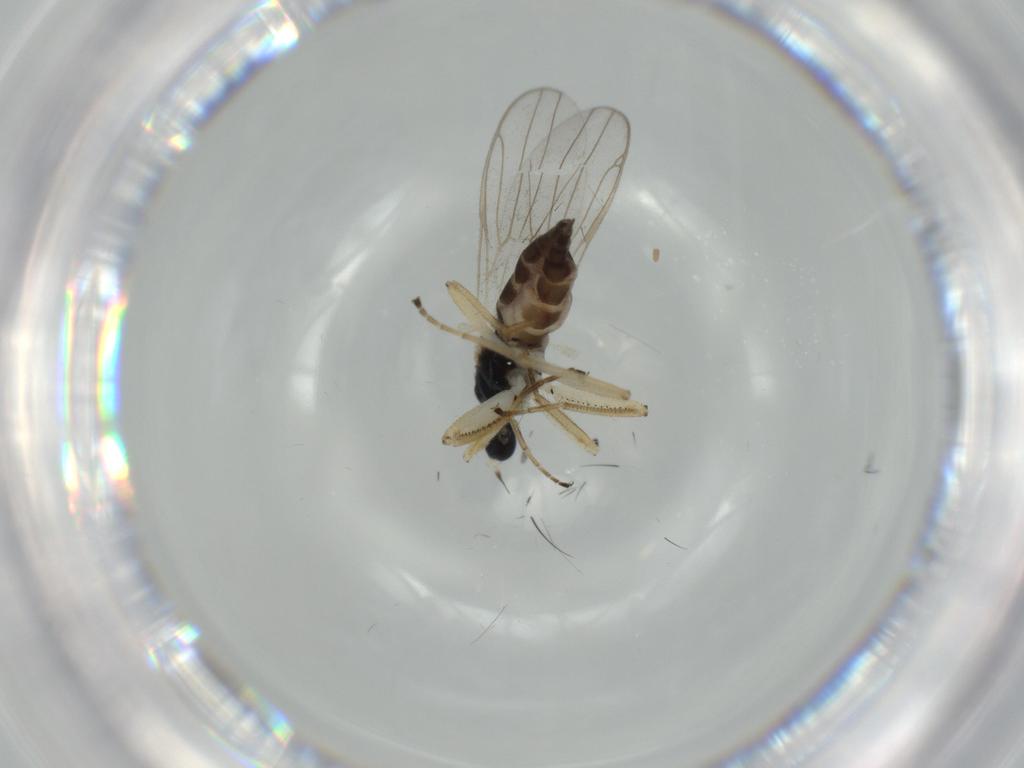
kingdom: Animalia
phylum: Arthropoda
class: Insecta
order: Diptera
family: Hybotidae
